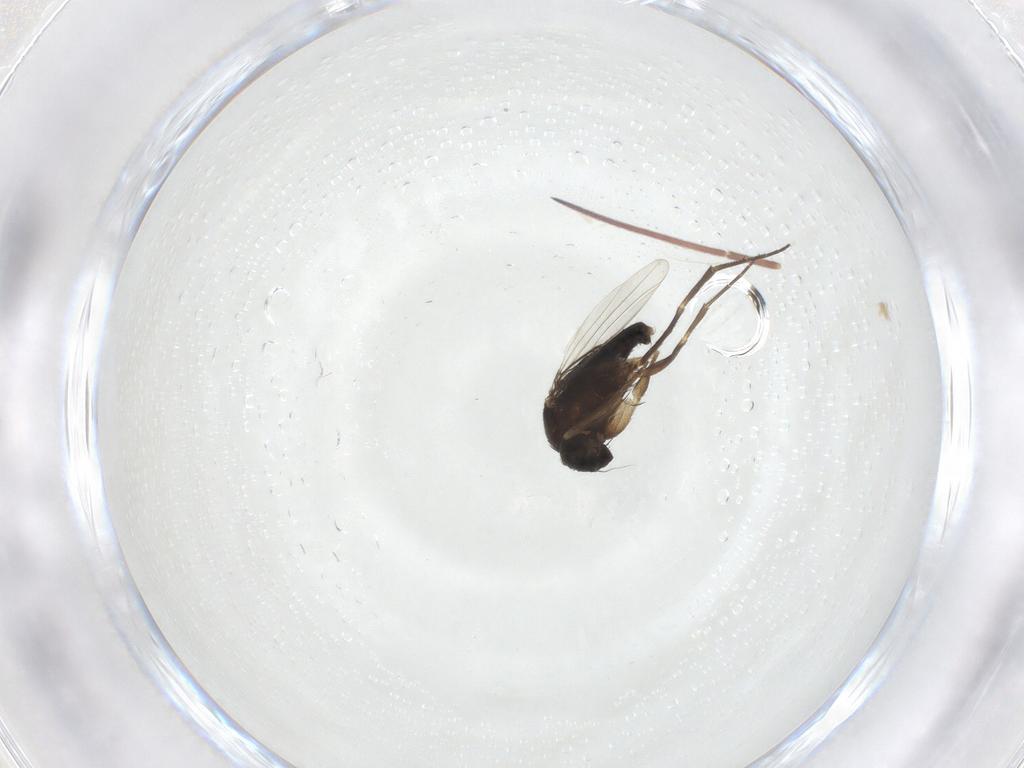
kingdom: Animalia
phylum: Arthropoda
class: Insecta
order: Diptera
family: Phoridae
